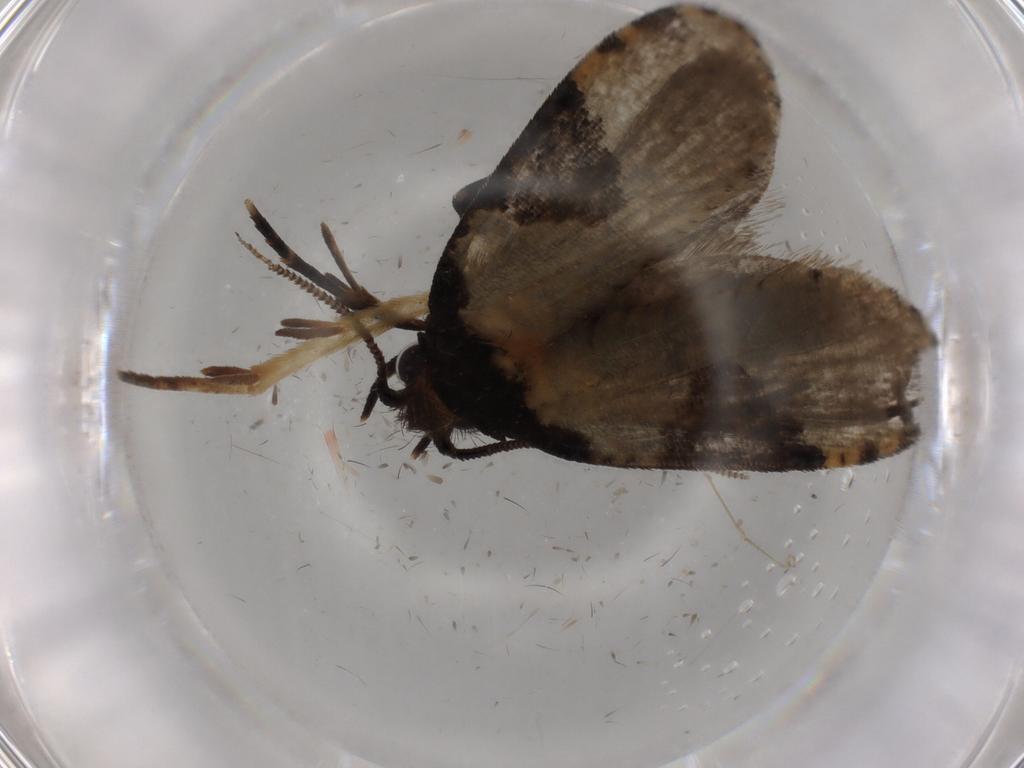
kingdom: Animalia
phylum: Arthropoda
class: Insecta
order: Lepidoptera
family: Tineidae
